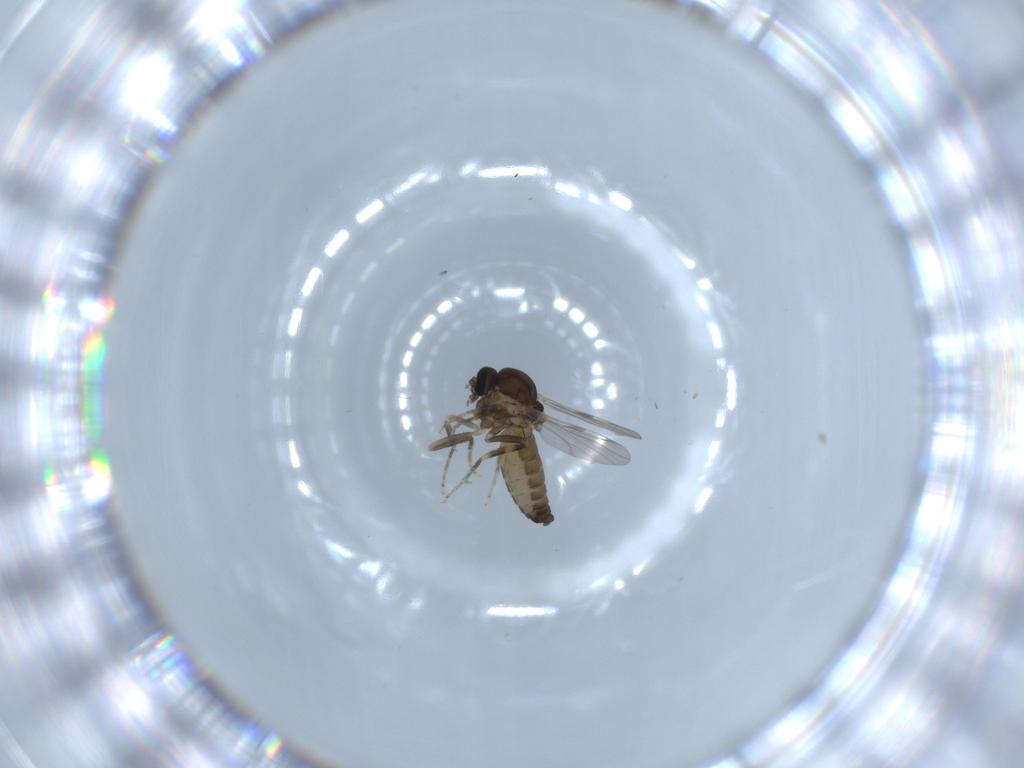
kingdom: Animalia
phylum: Arthropoda
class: Insecta
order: Diptera
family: Ceratopogonidae
